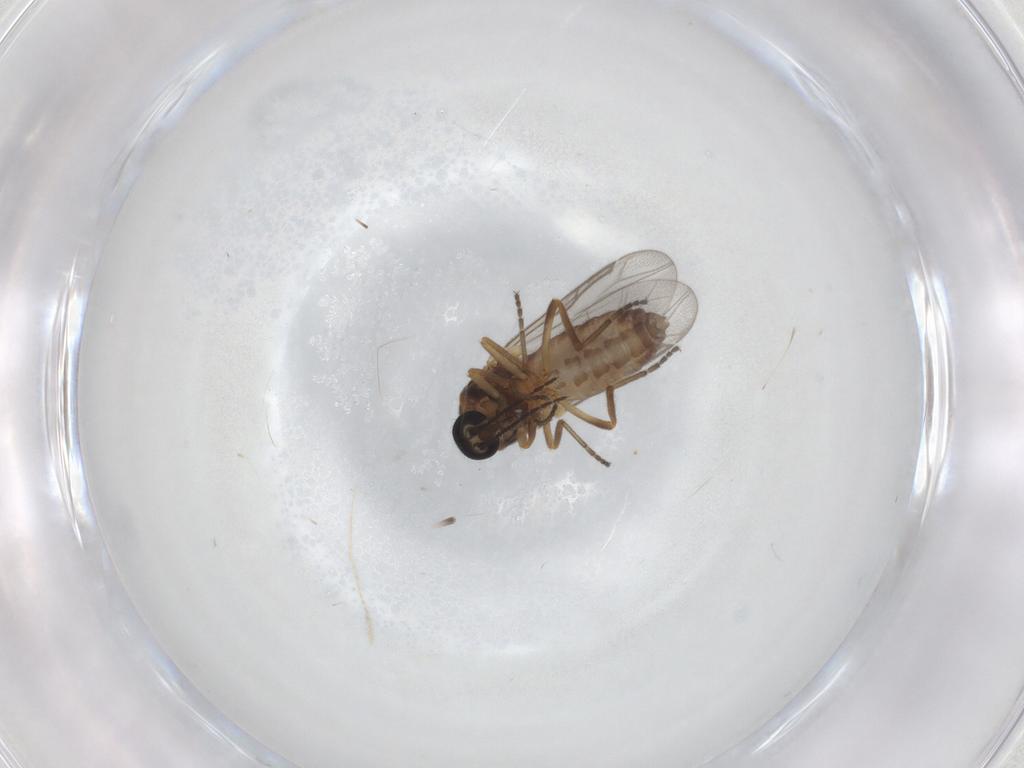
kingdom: Animalia
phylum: Arthropoda
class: Insecta
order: Diptera
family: Ceratopogonidae
